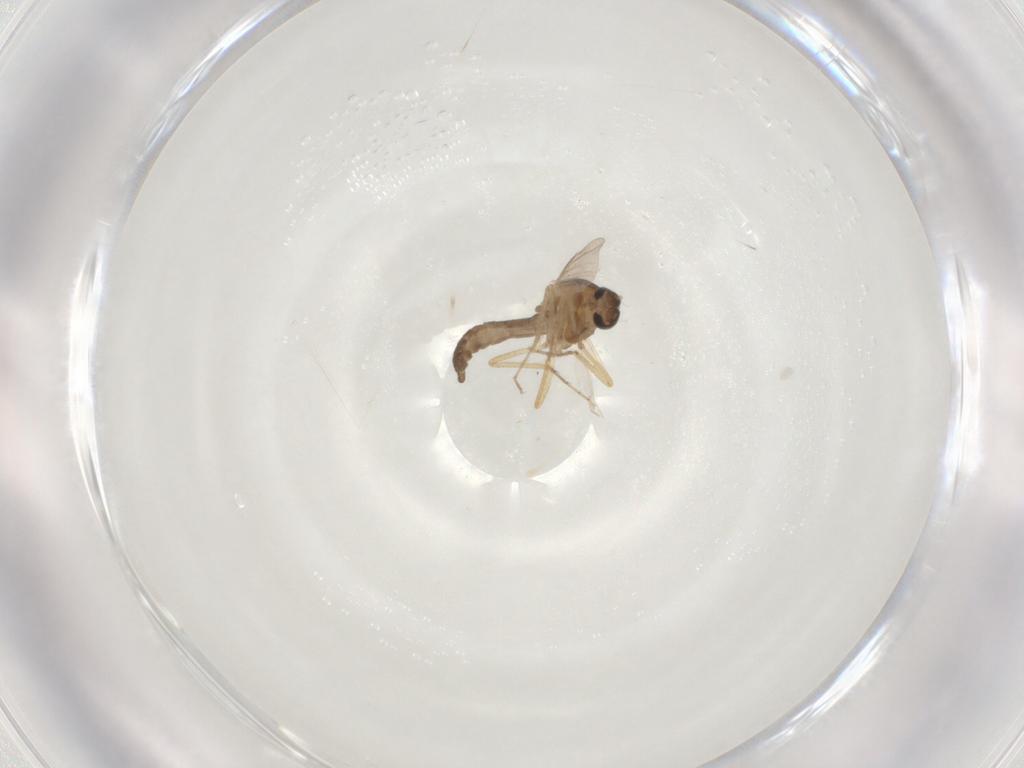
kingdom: Animalia
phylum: Arthropoda
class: Insecta
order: Diptera
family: Ceratopogonidae
